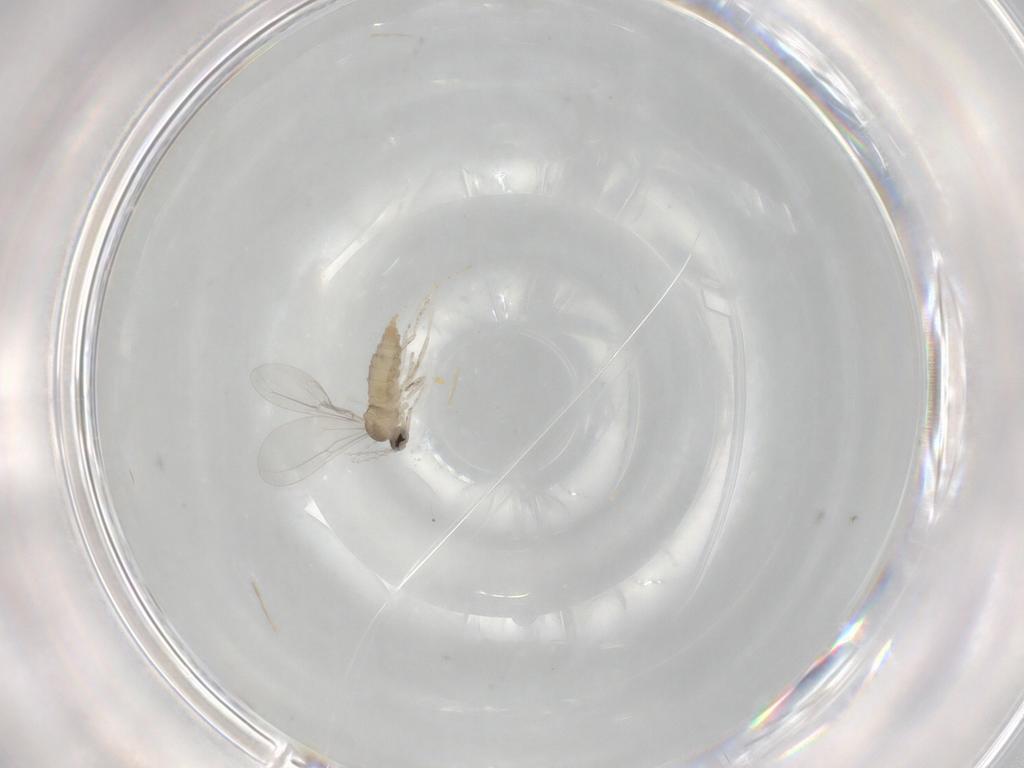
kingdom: Animalia
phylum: Arthropoda
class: Insecta
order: Diptera
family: Cecidomyiidae
